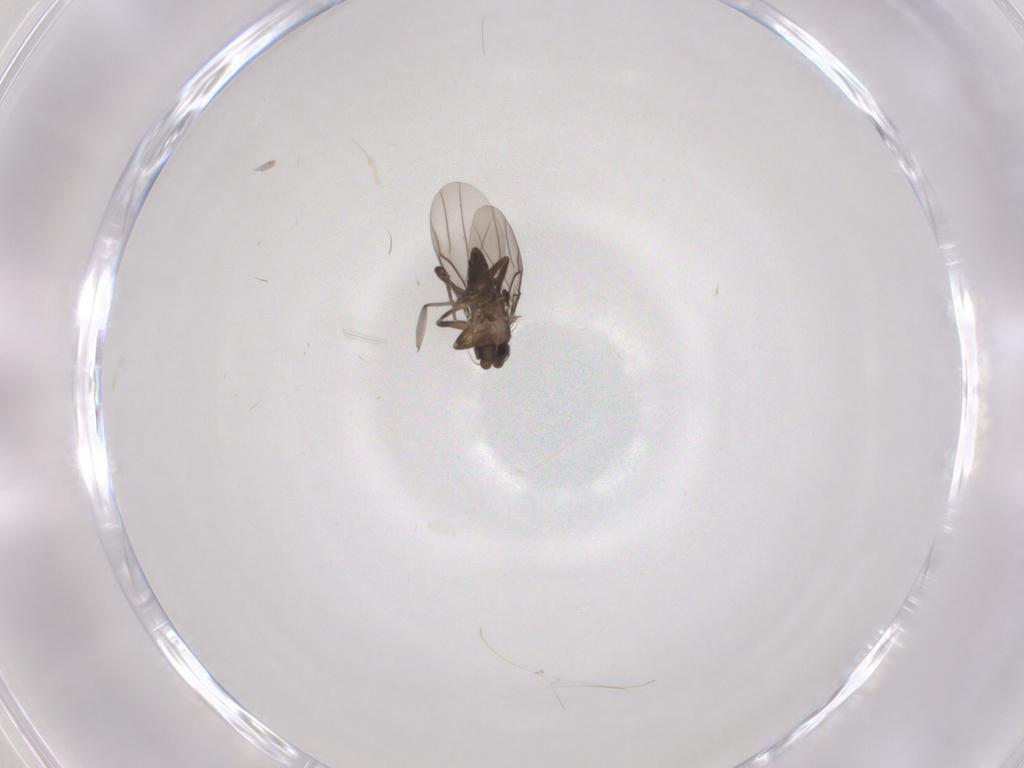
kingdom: Animalia
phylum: Arthropoda
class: Insecta
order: Diptera
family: Sciaridae
